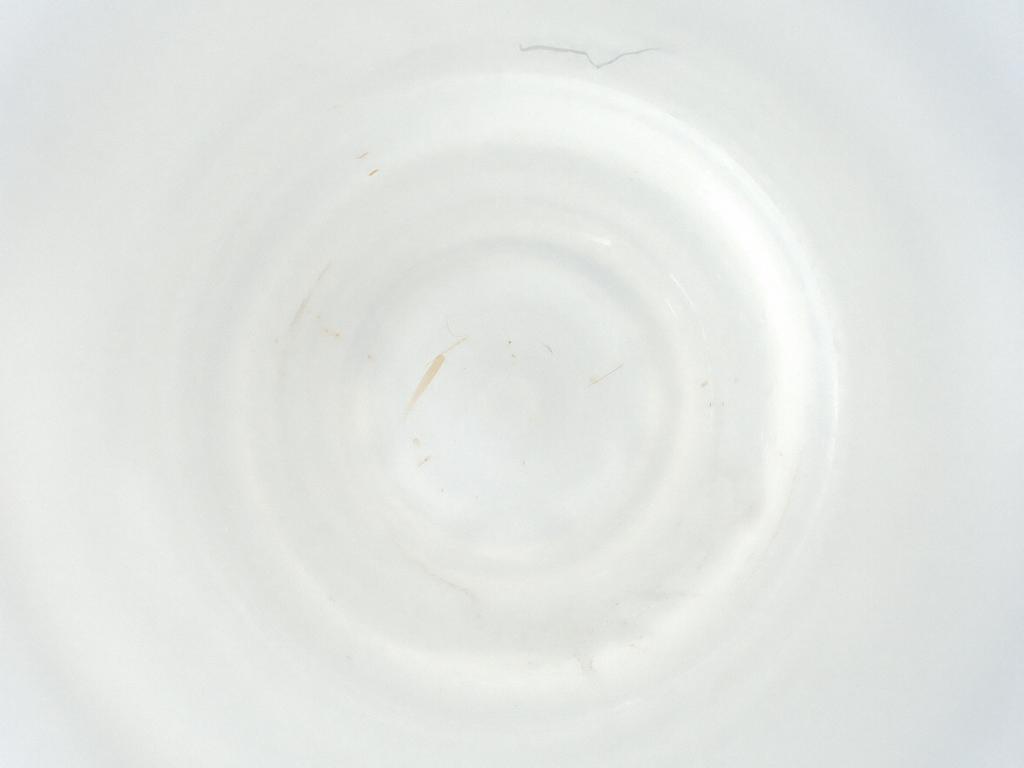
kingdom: Animalia
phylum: Arthropoda
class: Insecta
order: Hymenoptera
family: Aphelinidae
